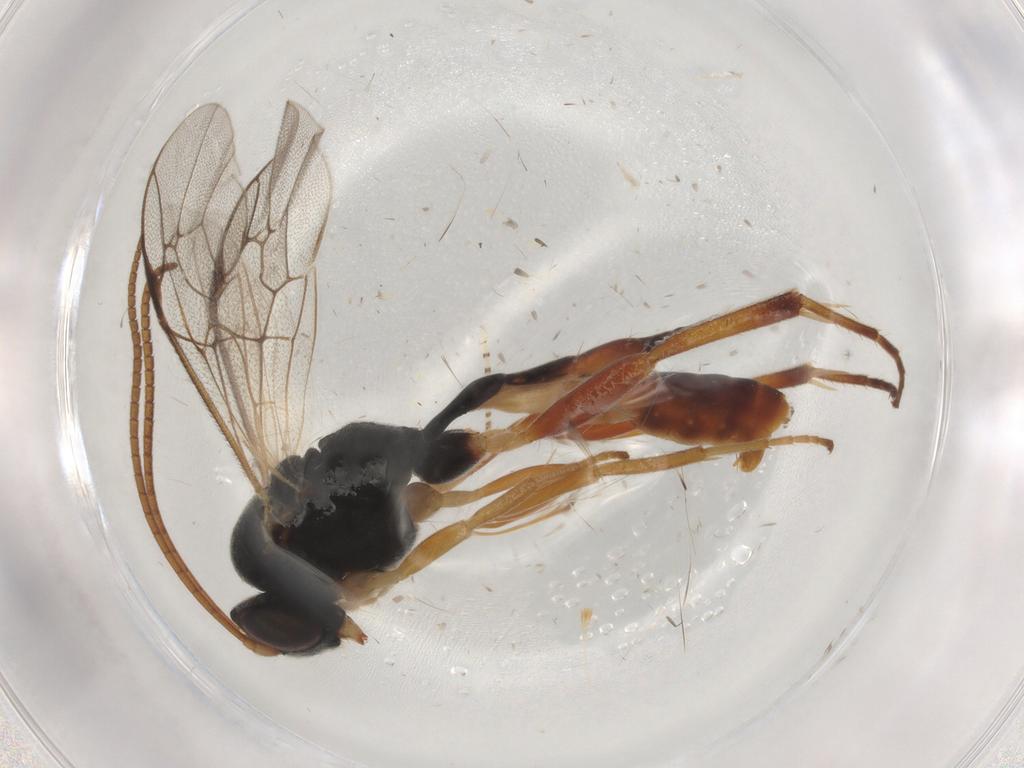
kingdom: Animalia
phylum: Arthropoda
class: Insecta
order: Hymenoptera
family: Ichneumonidae
